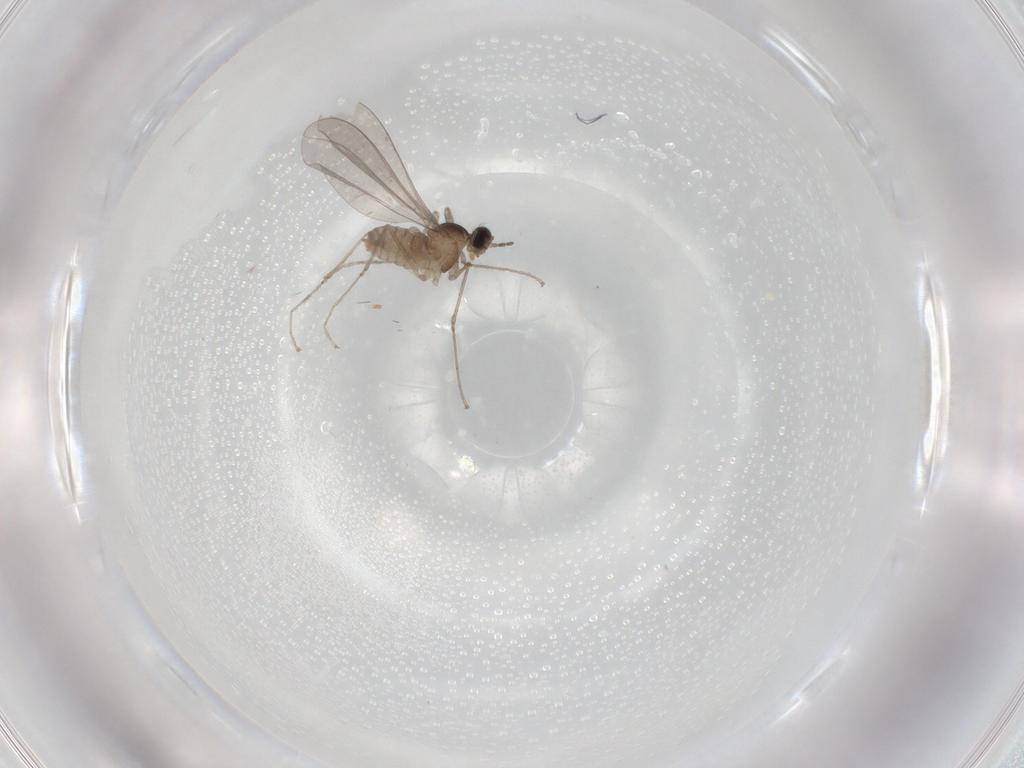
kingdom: Animalia
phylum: Arthropoda
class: Insecta
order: Diptera
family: Cecidomyiidae
